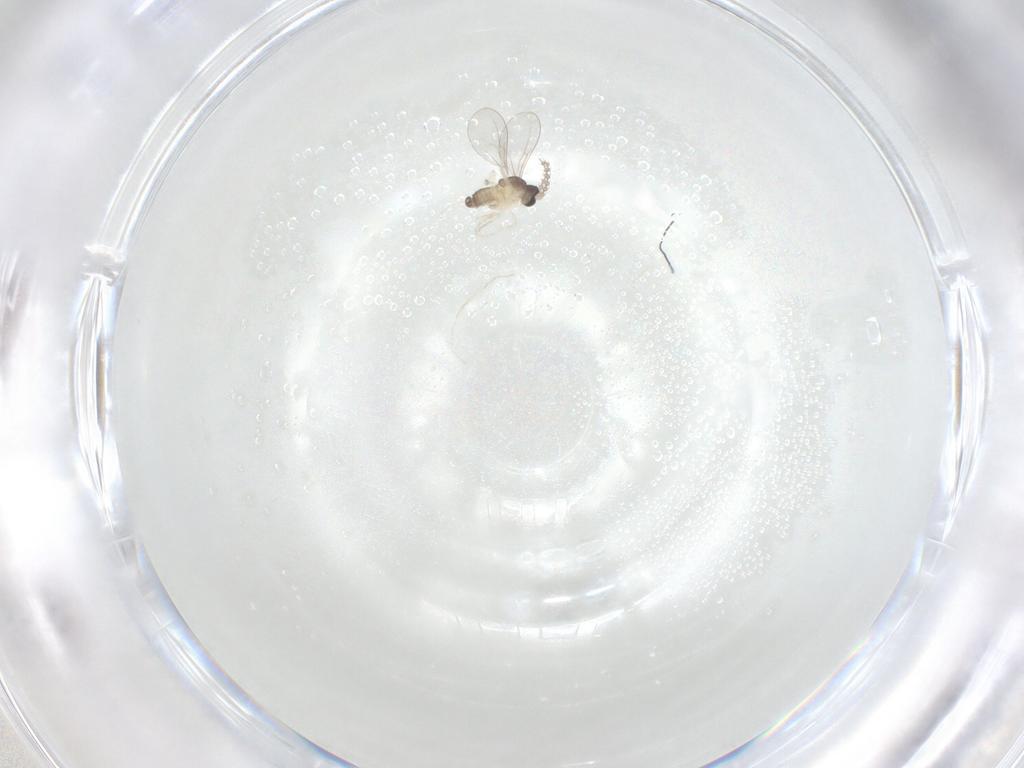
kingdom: Animalia
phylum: Arthropoda
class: Insecta
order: Diptera
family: Cecidomyiidae
